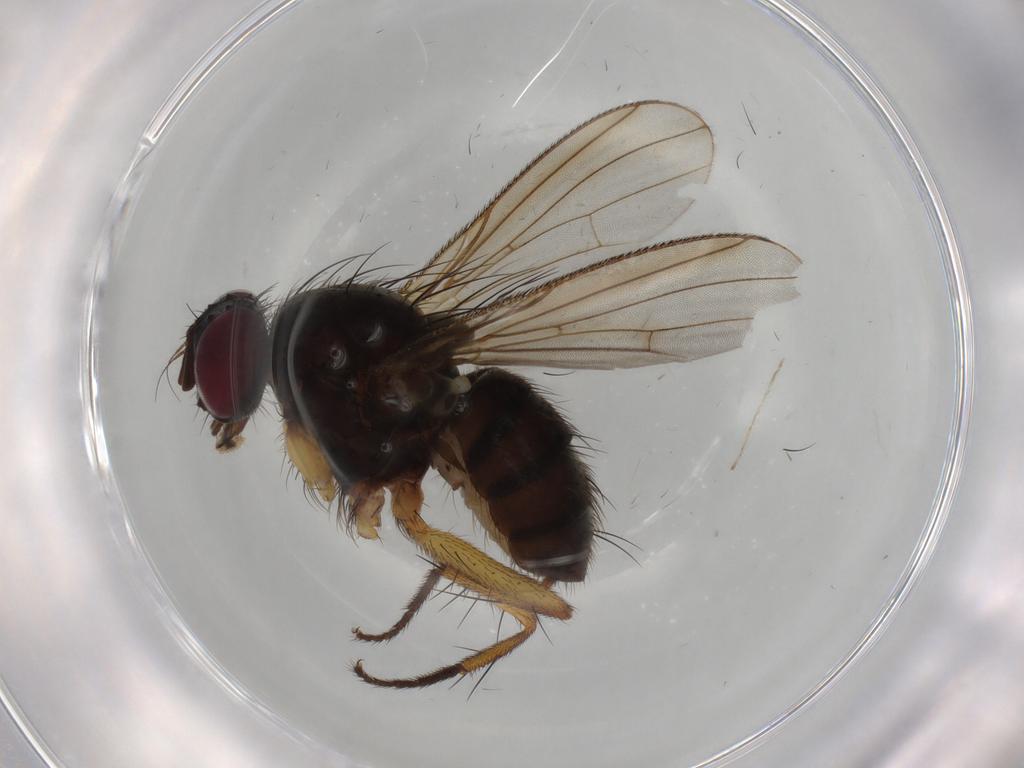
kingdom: Animalia
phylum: Arthropoda
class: Insecta
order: Diptera
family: Muscidae
